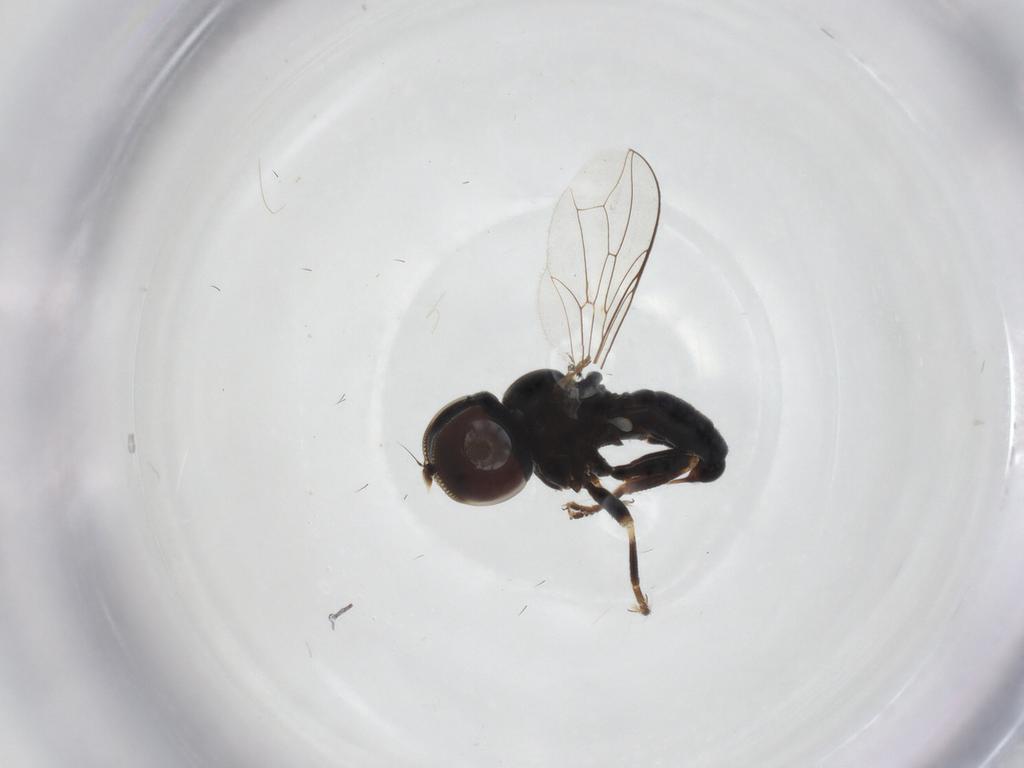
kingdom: Animalia
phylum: Arthropoda
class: Insecta
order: Diptera
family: Pipunculidae
